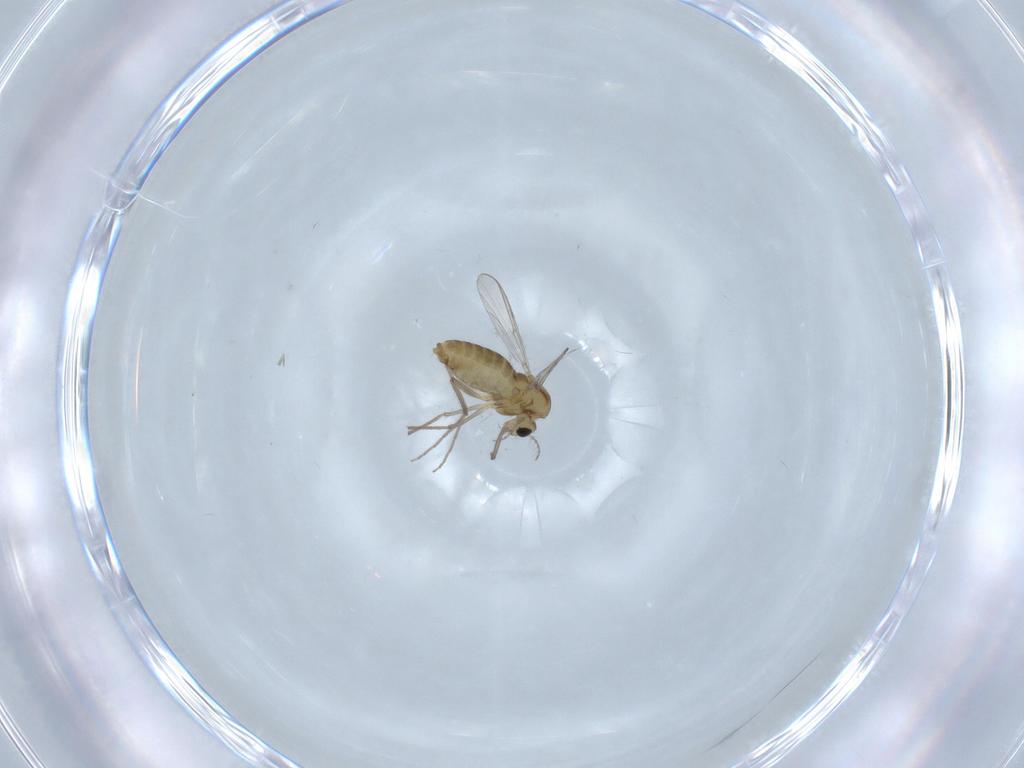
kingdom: Animalia
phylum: Arthropoda
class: Insecta
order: Diptera
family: Chironomidae
